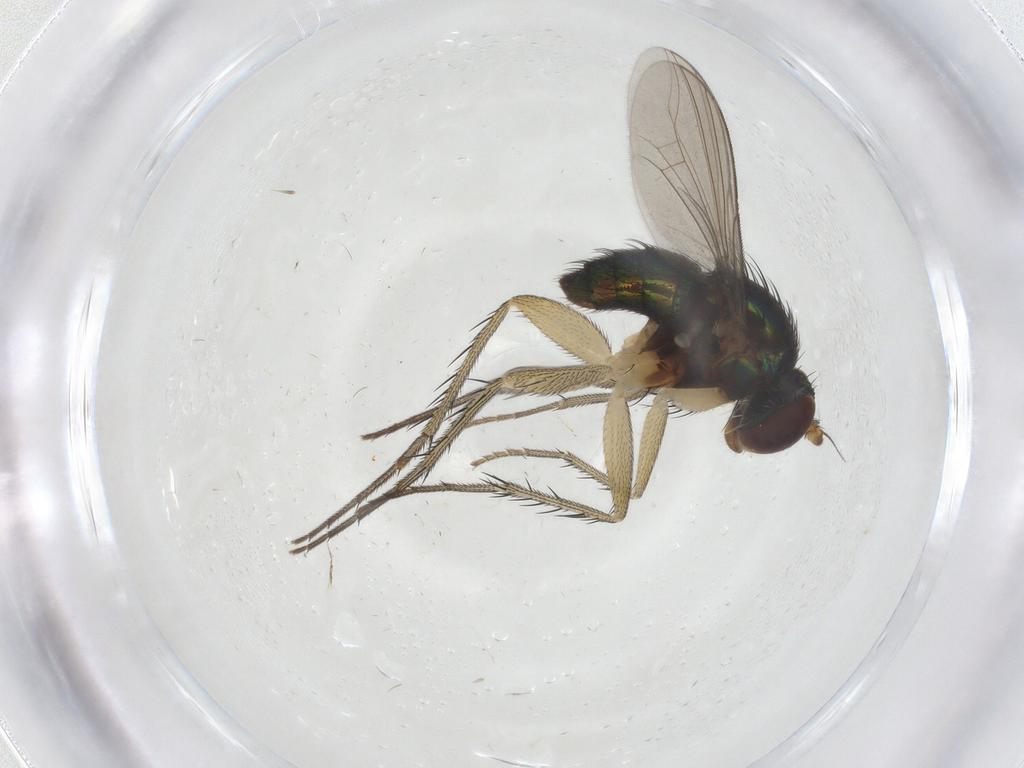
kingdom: Animalia
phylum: Arthropoda
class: Insecta
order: Diptera
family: Dolichopodidae
